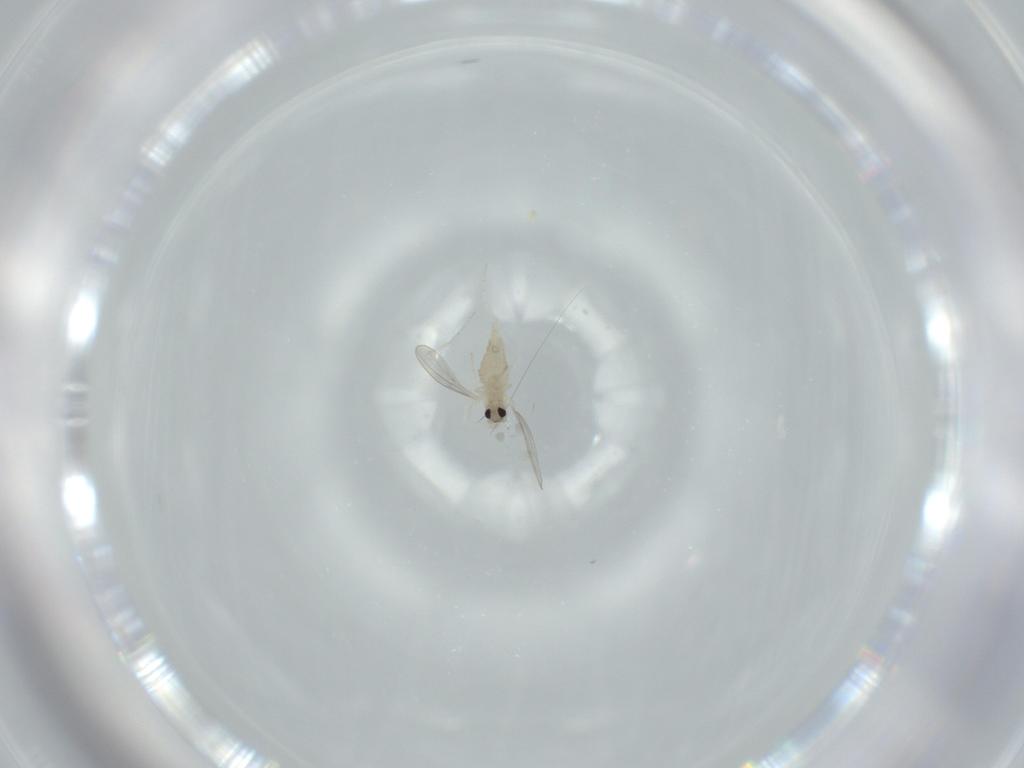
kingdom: Animalia
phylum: Arthropoda
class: Insecta
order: Diptera
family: Cecidomyiidae
